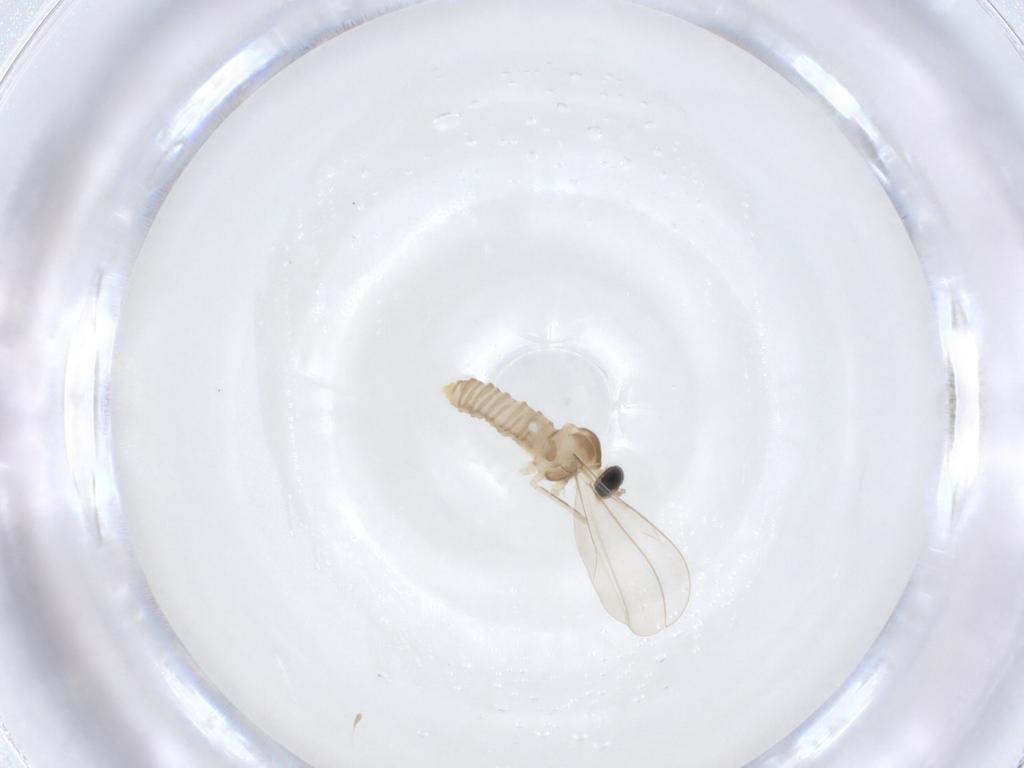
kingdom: Animalia
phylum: Arthropoda
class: Insecta
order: Diptera
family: Cecidomyiidae
